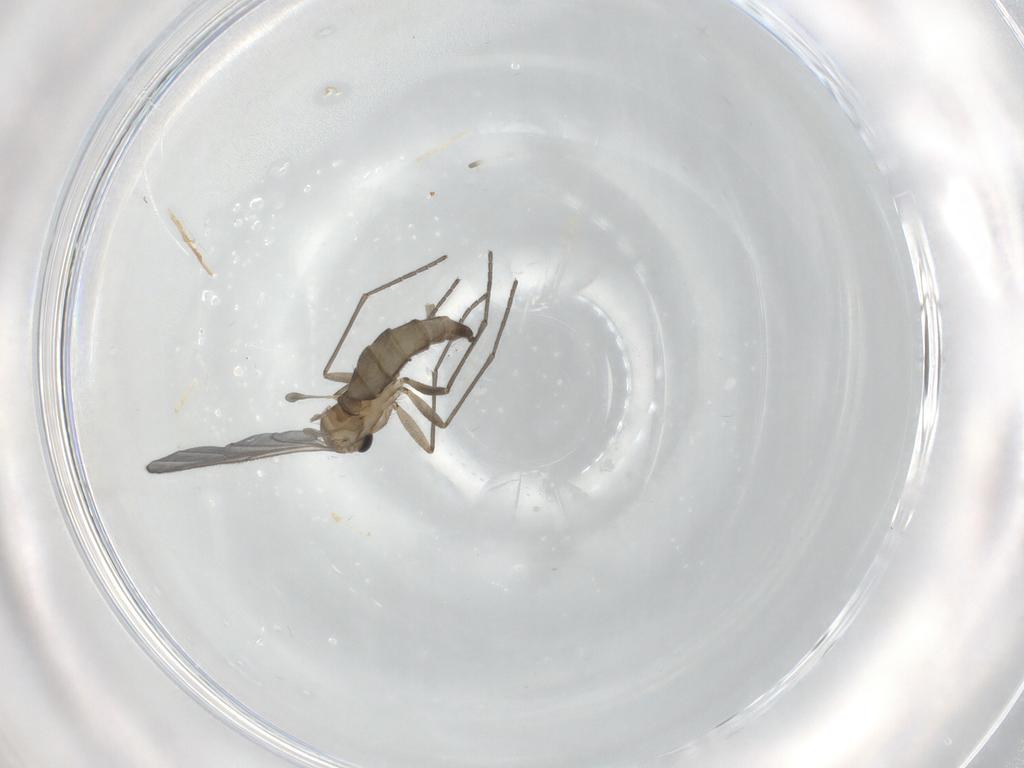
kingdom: Animalia
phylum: Arthropoda
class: Insecta
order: Diptera
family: Sciaridae
